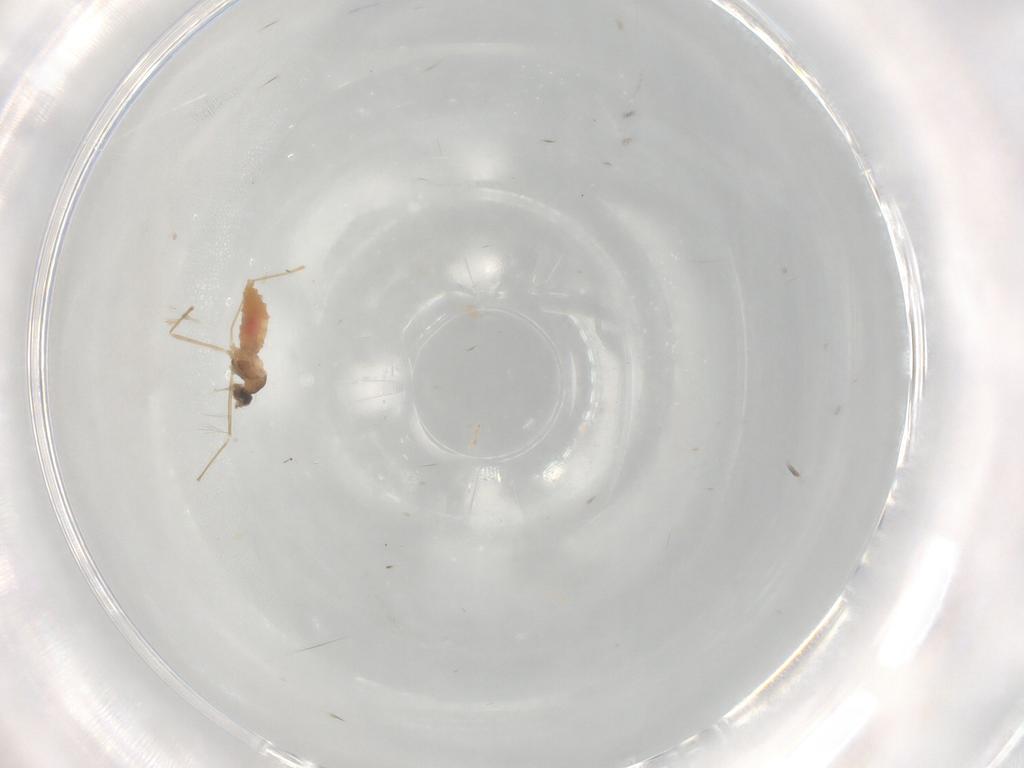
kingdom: Animalia
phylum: Arthropoda
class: Insecta
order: Diptera
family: Cecidomyiidae
